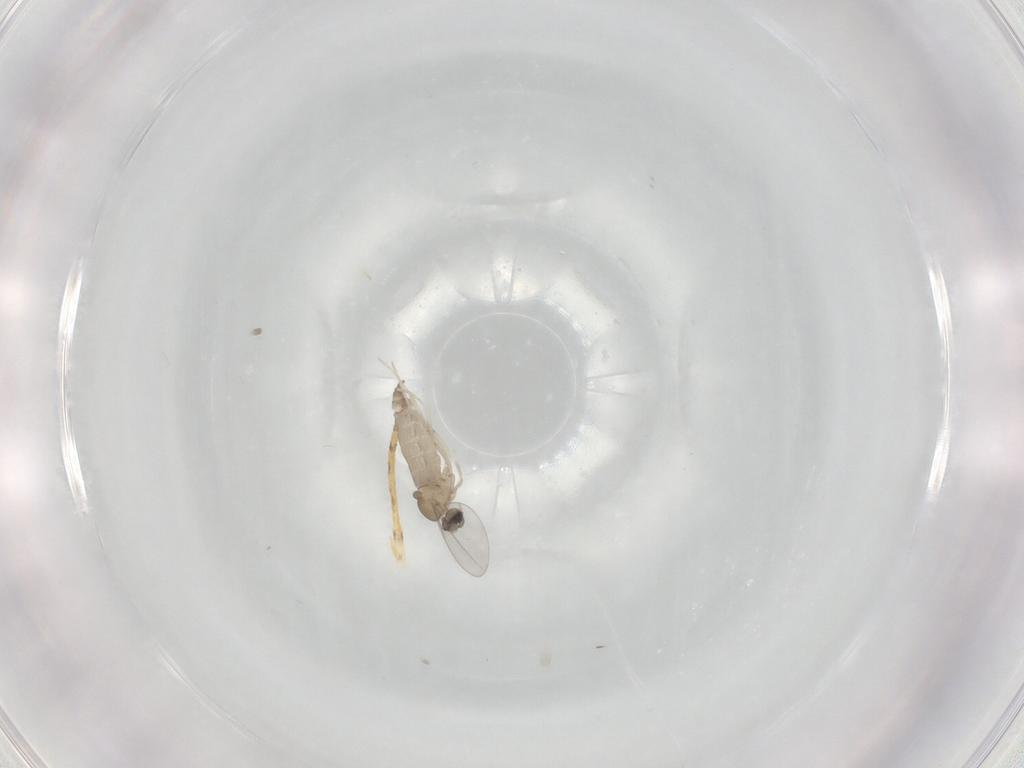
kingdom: Animalia
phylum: Arthropoda
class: Insecta
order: Diptera
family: Cecidomyiidae
